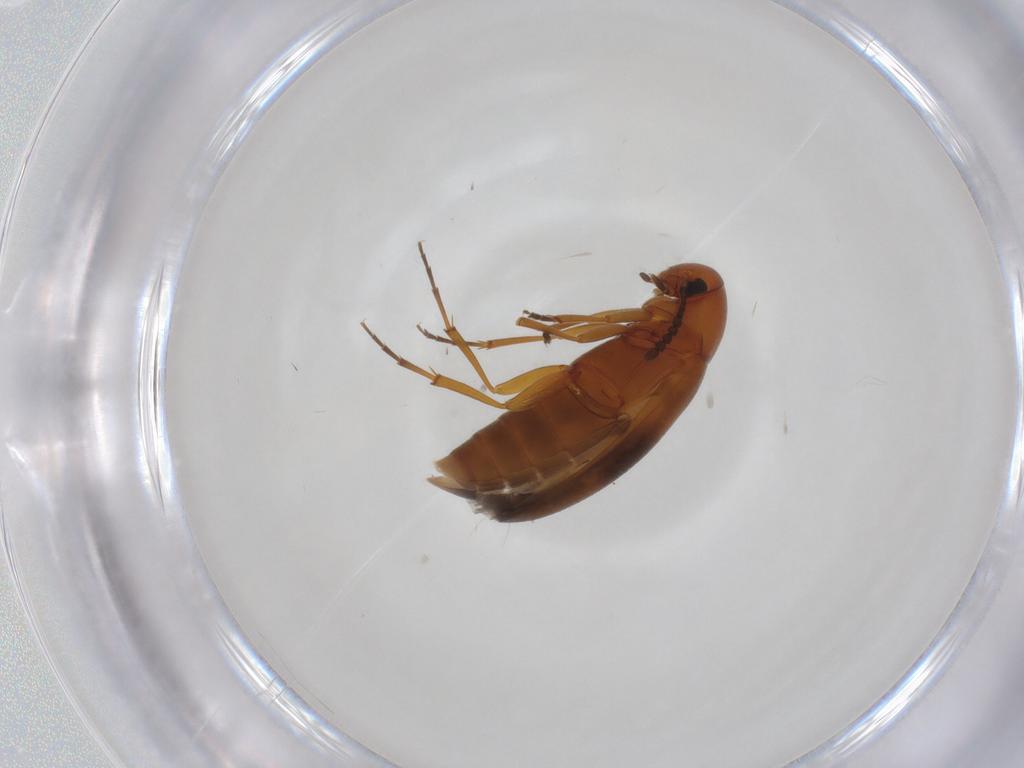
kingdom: Animalia
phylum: Arthropoda
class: Insecta
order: Coleoptera
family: Scraptiidae
